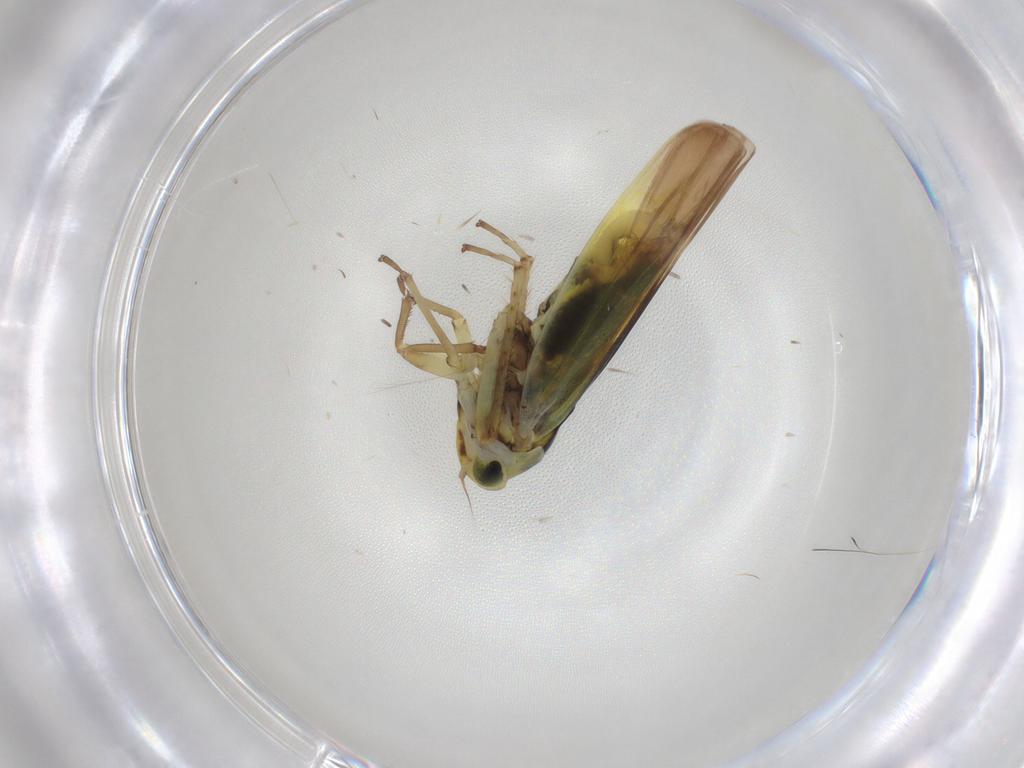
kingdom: Animalia
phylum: Arthropoda
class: Insecta
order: Hemiptera
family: Cicadellidae
